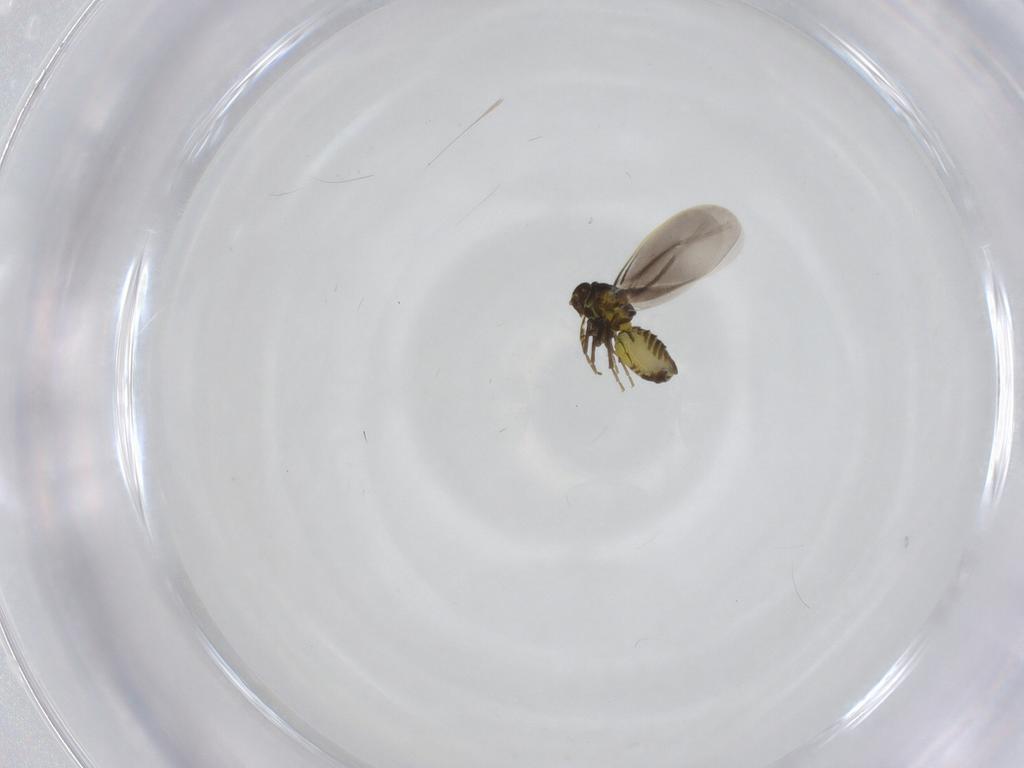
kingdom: Animalia
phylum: Arthropoda
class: Insecta
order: Hemiptera
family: Aleyrodidae
